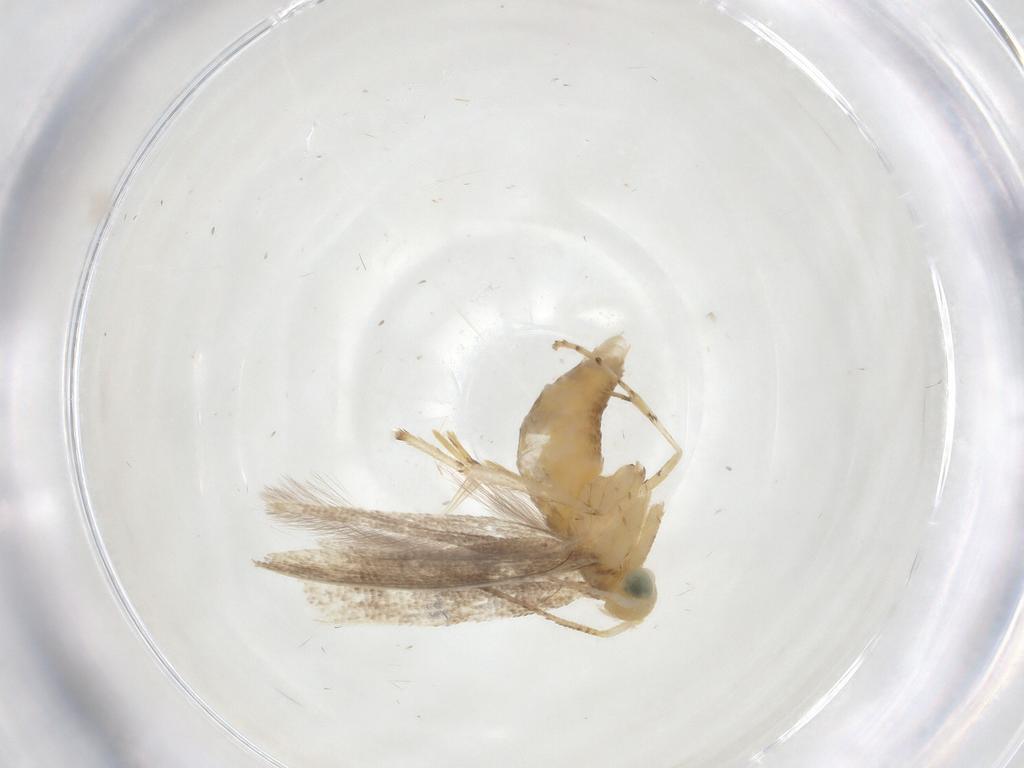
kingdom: Animalia
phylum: Arthropoda
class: Insecta
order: Lepidoptera
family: Argyresthiidae
